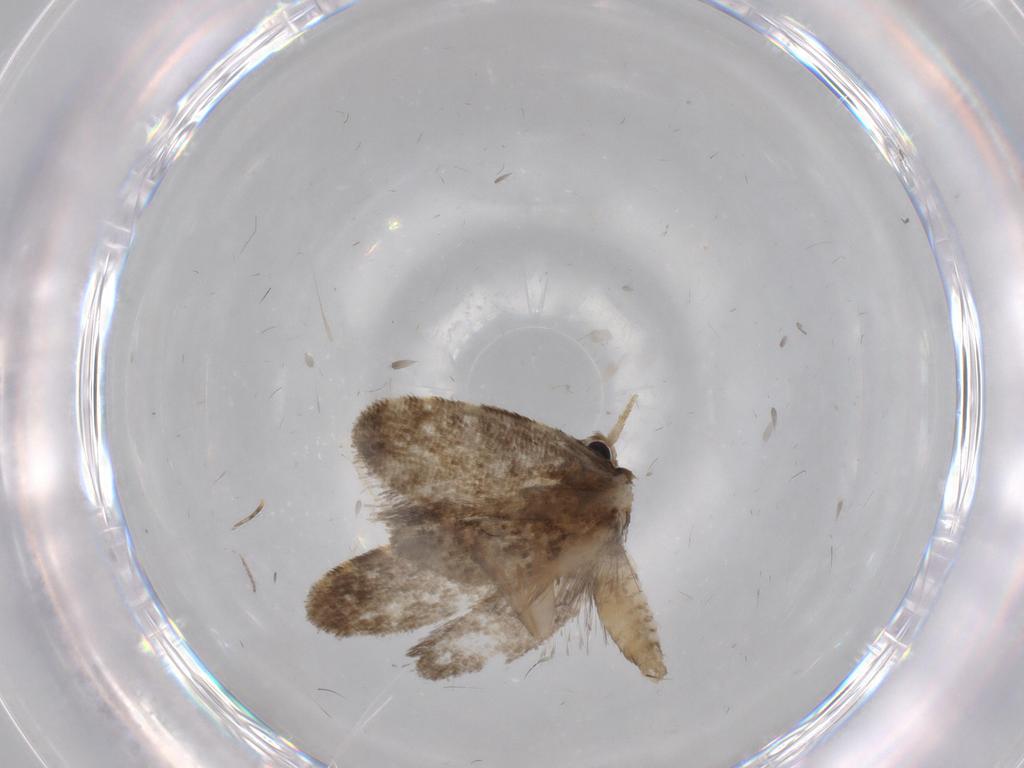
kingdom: Animalia
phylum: Arthropoda
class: Insecta
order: Lepidoptera
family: Psychidae
